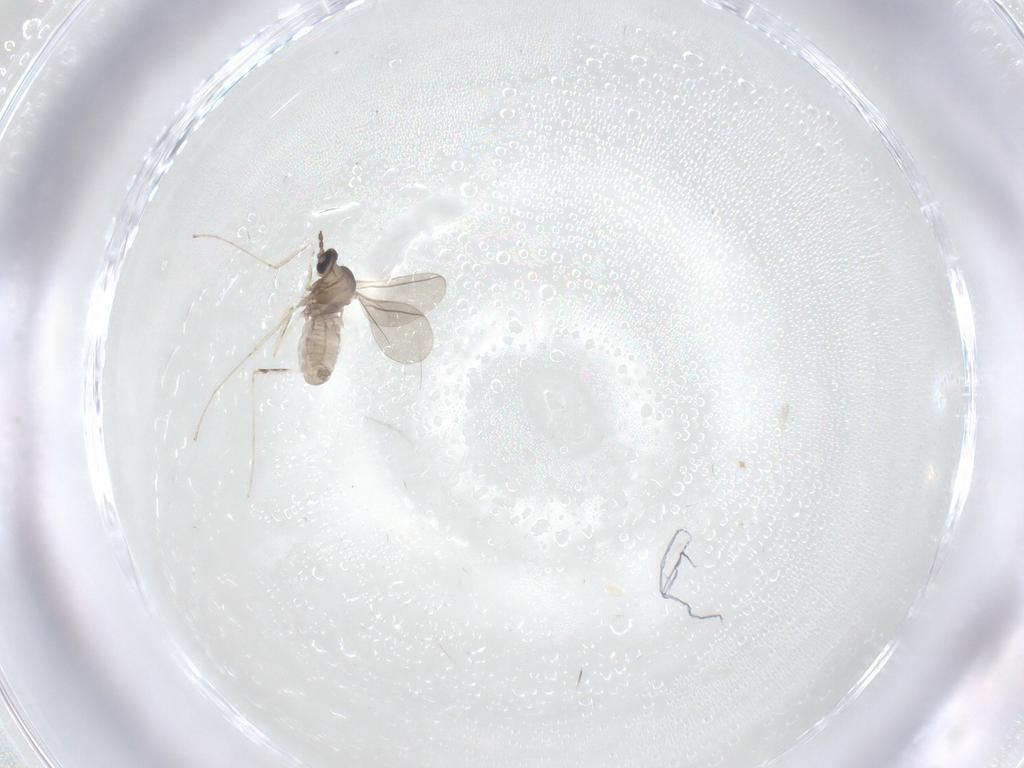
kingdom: Animalia
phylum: Arthropoda
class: Insecta
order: Diptera
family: Cecidomyiidae
